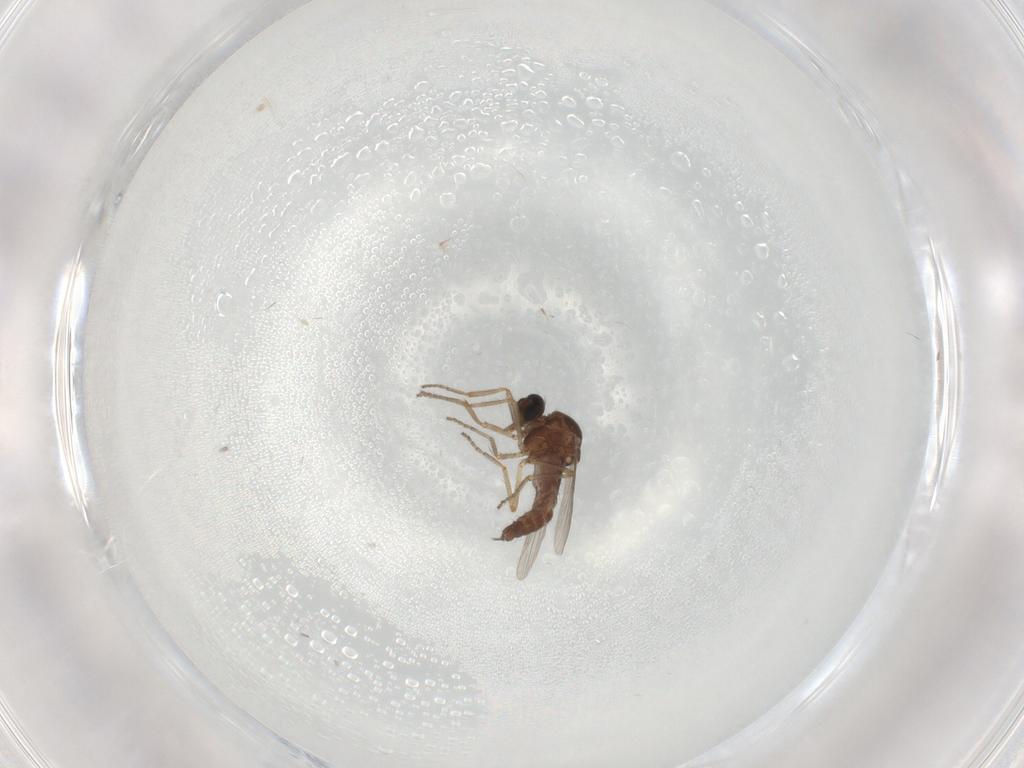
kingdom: Animalia
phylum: Arthropoda
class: Insecta
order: Diptera
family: Ceratopogonidae
